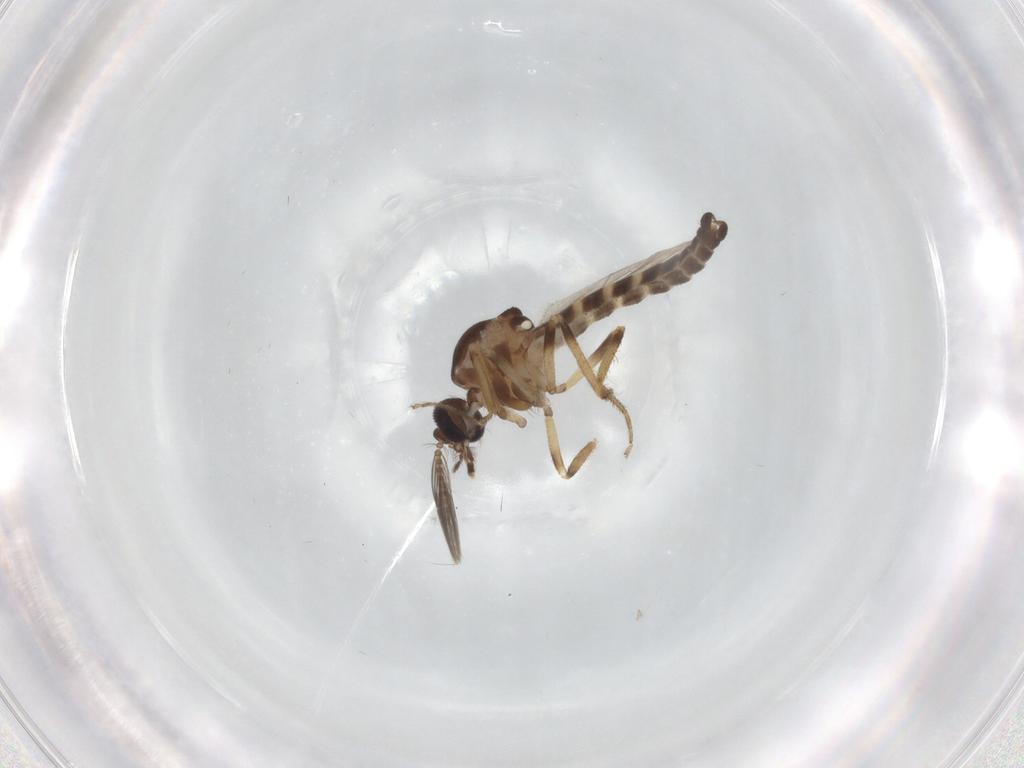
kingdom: Animalia
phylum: Arthropoda
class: Insecta
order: Diptera
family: Ceratopogonidae
